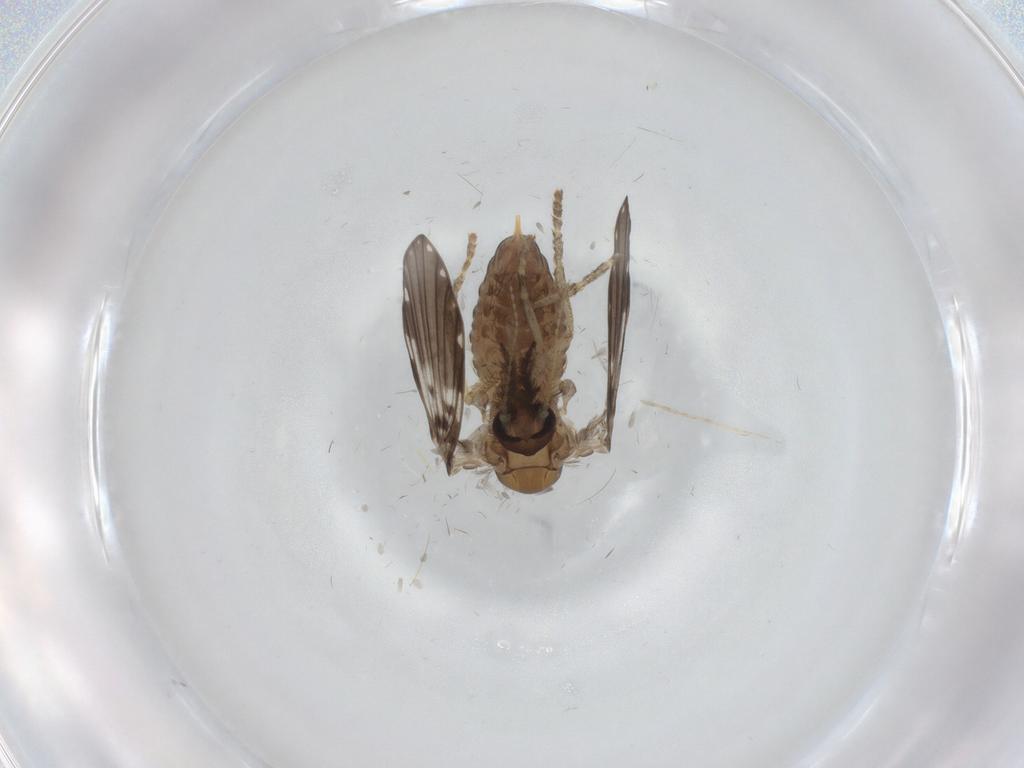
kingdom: Animalia
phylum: Arthropoda
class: Insecta
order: Diptera
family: Psychodidae
